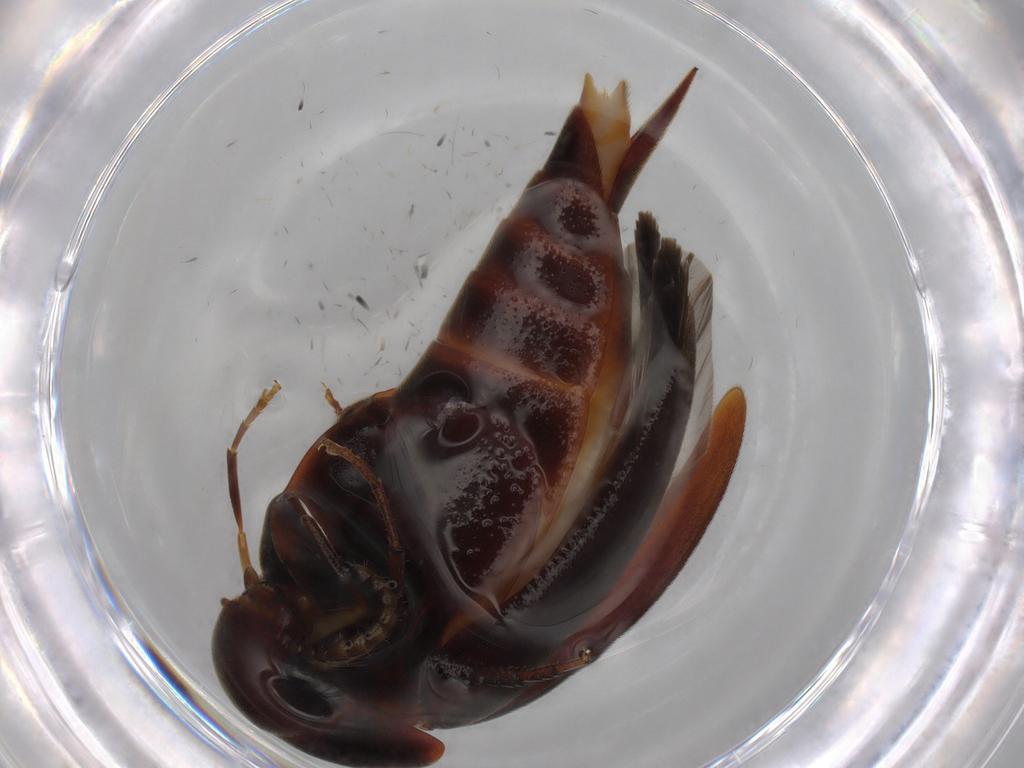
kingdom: Animalia
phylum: Arthropoda
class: Insecta
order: Coleoptera
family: Mordellidae
